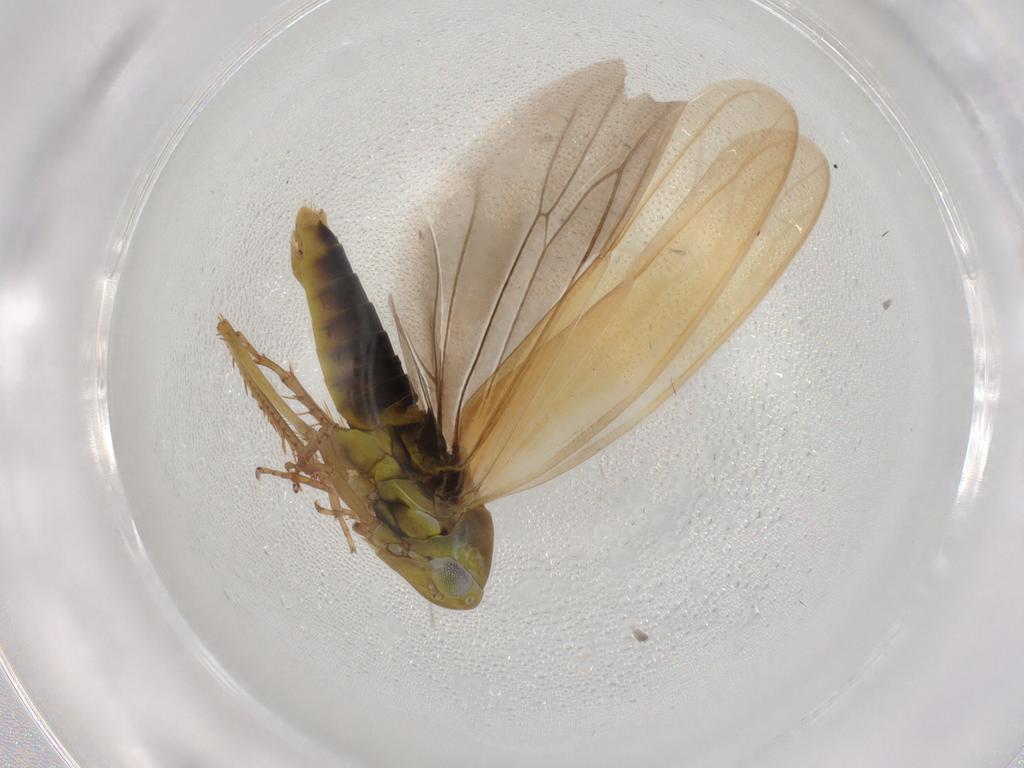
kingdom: Animalia
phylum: Arthropoda
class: Insecta
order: Hemiptera
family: Cicadellidae
